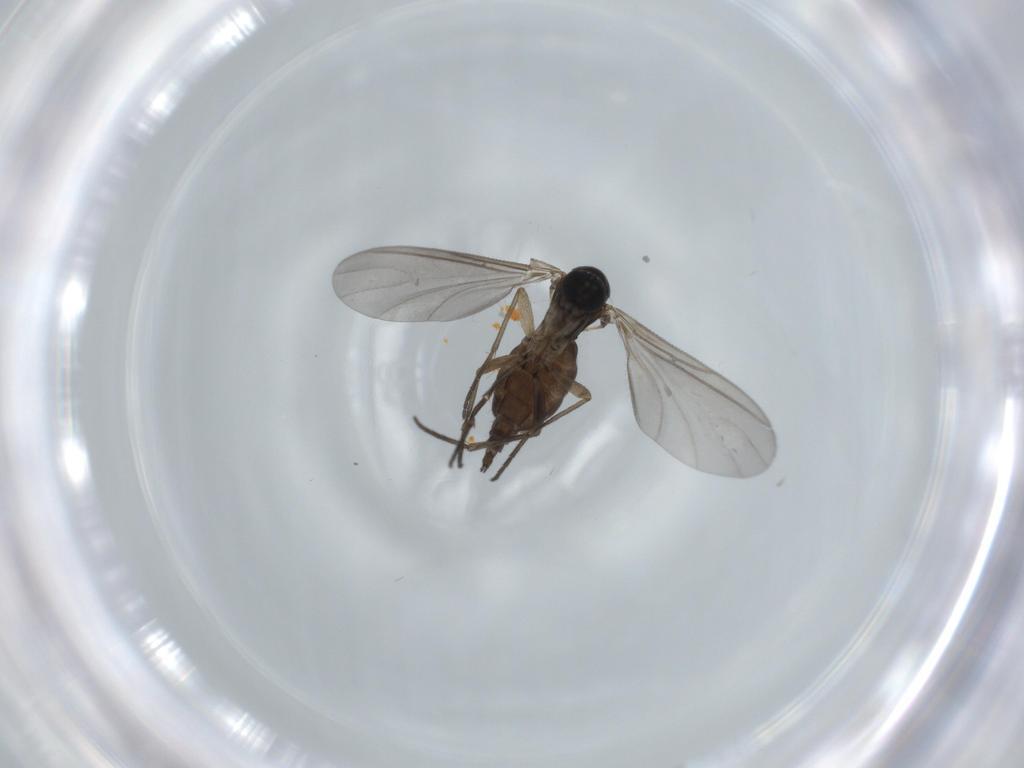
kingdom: Animalia
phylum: Arthropoda
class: Insecta
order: Diptera
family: Sciaridae
